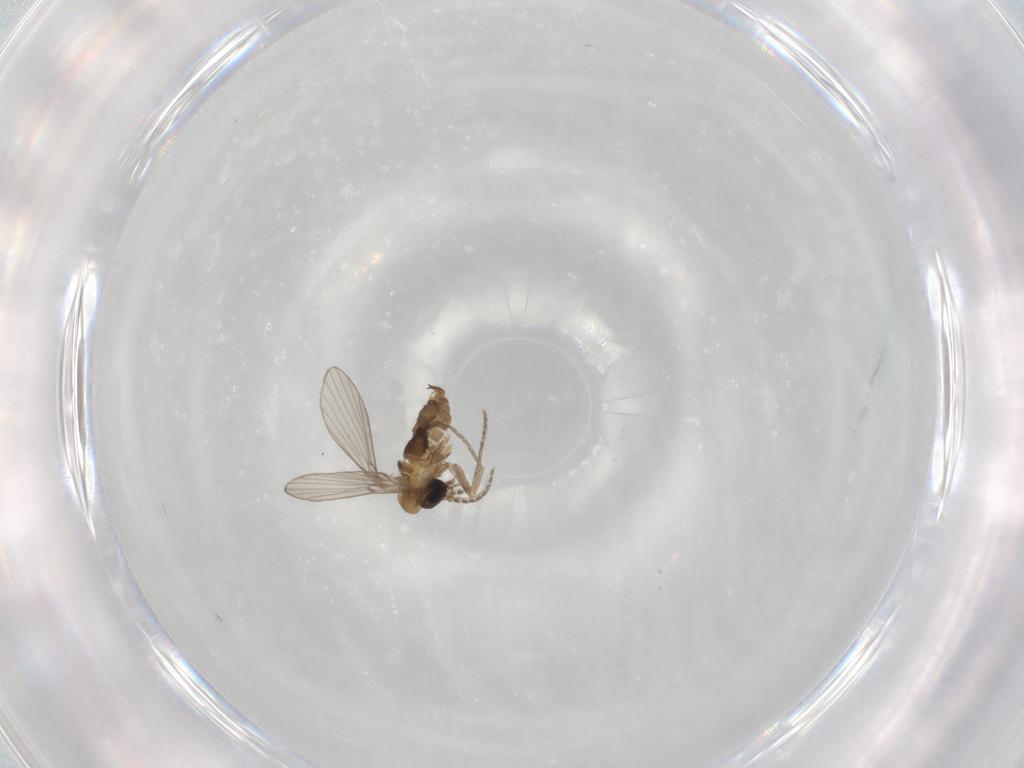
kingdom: Animalia
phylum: Arthropoda
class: Insecta
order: Diptera
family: Psychodidae
